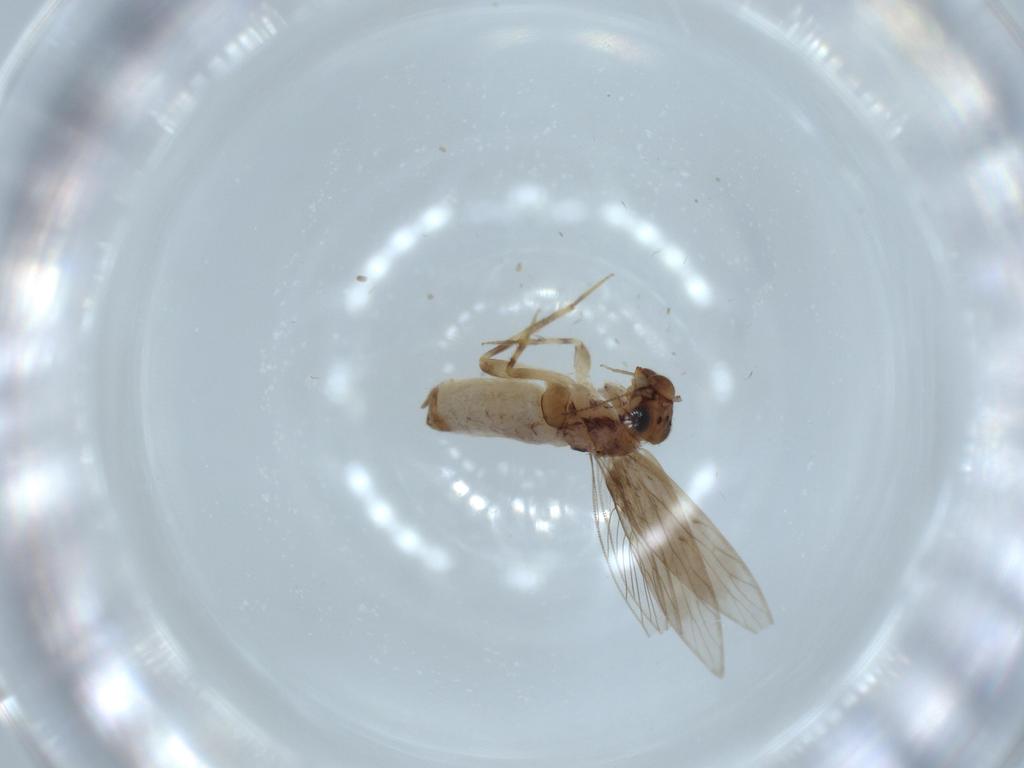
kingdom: Animalia
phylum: Arthropoda
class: Insecta
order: Psocodea
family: Lepidopsocidae
